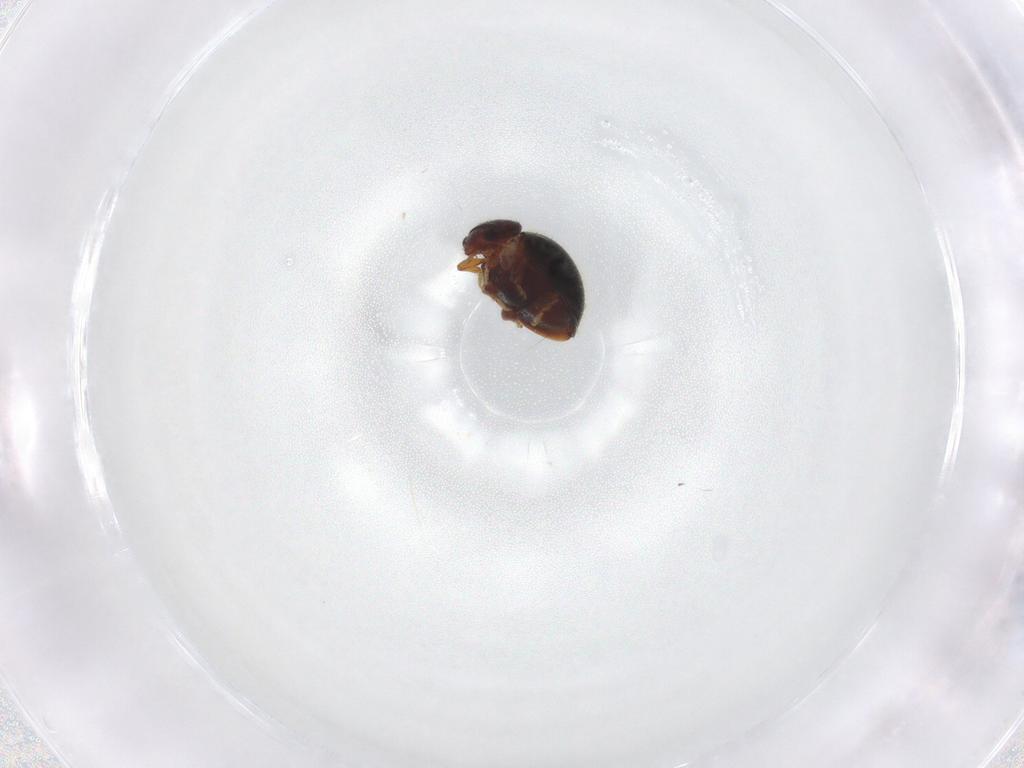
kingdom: Animalia
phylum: Arthropoda
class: Insecta
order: Coleoptera
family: Coccinellidae
